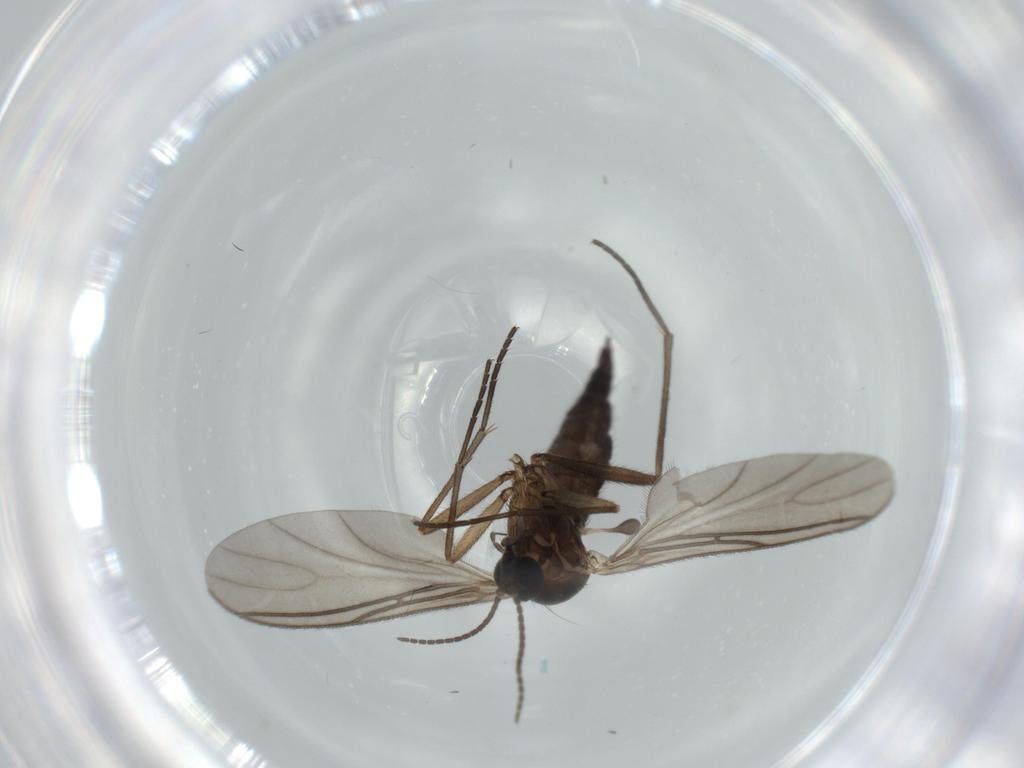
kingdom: Animalia
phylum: Arthropoda
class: Insecta
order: Diptera
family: Sciaridae
